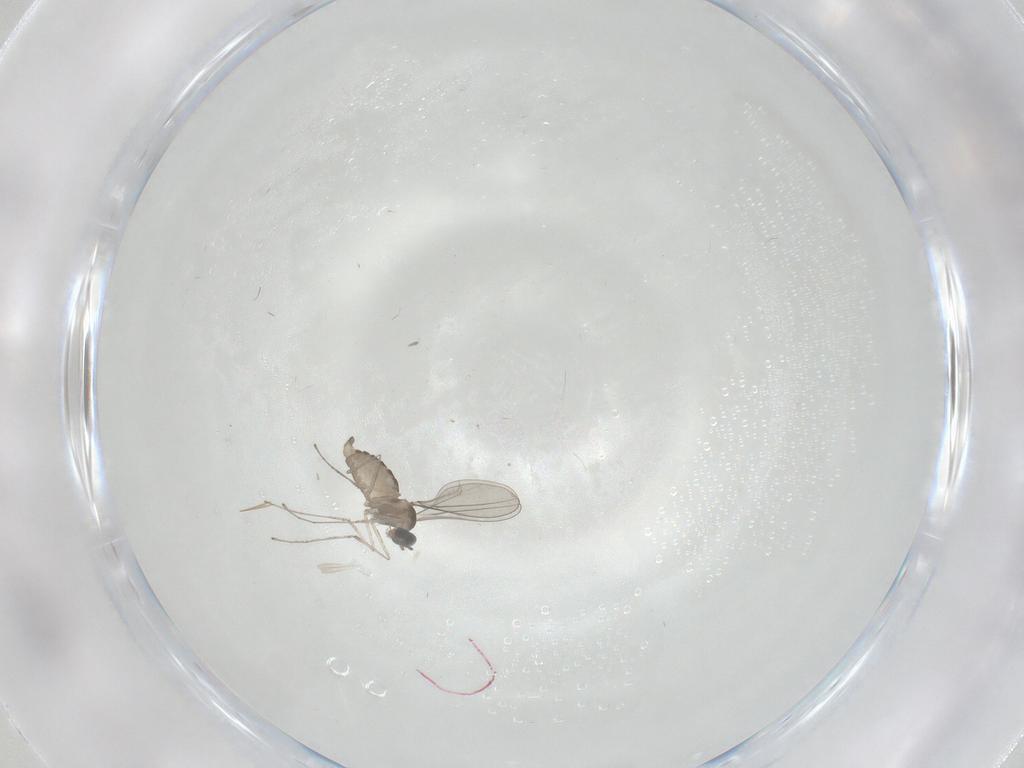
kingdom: Animalia
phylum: Arthropoda
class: Insecta
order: Diptera
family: Cecidomyiidae
